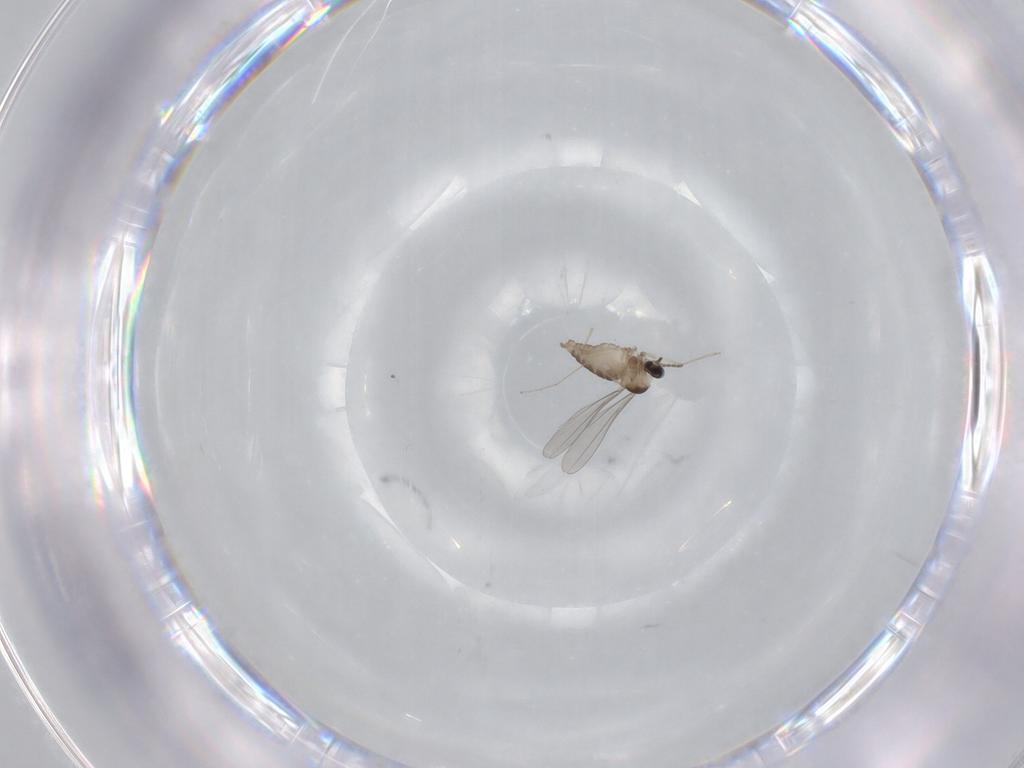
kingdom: Animalia
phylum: Arthropoda
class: Insecta
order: Diptera
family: Cecidomyiidae
